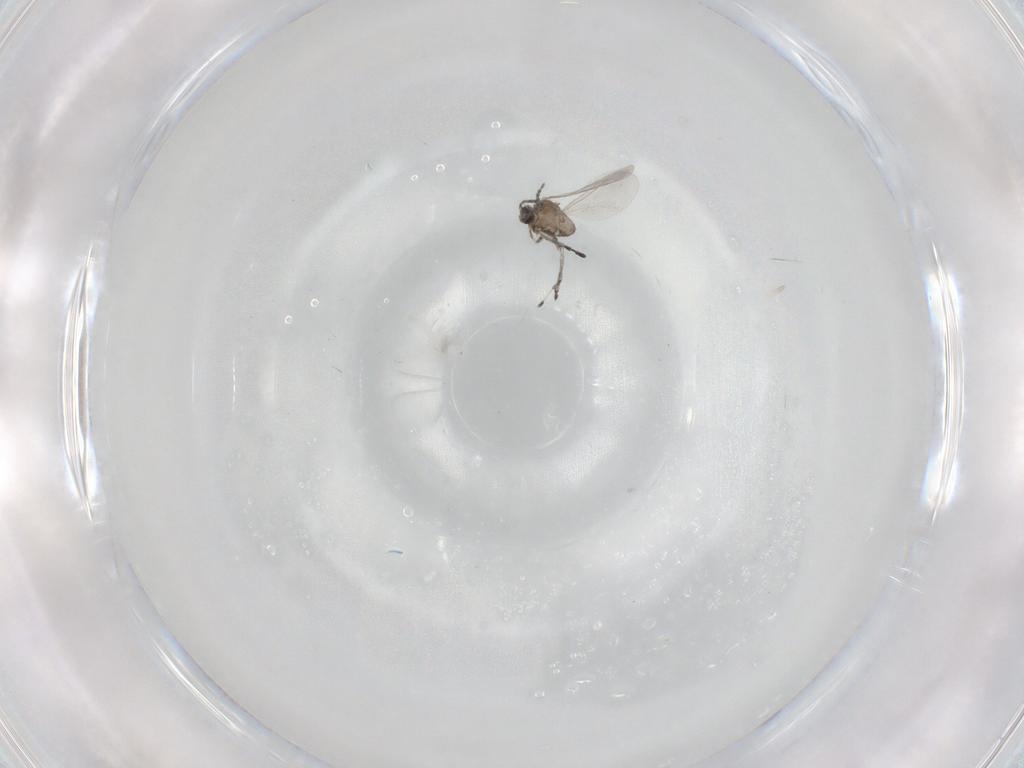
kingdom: Animalia
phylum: Arthropoda
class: Insecta
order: Diptera
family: Cecidomyiidae
